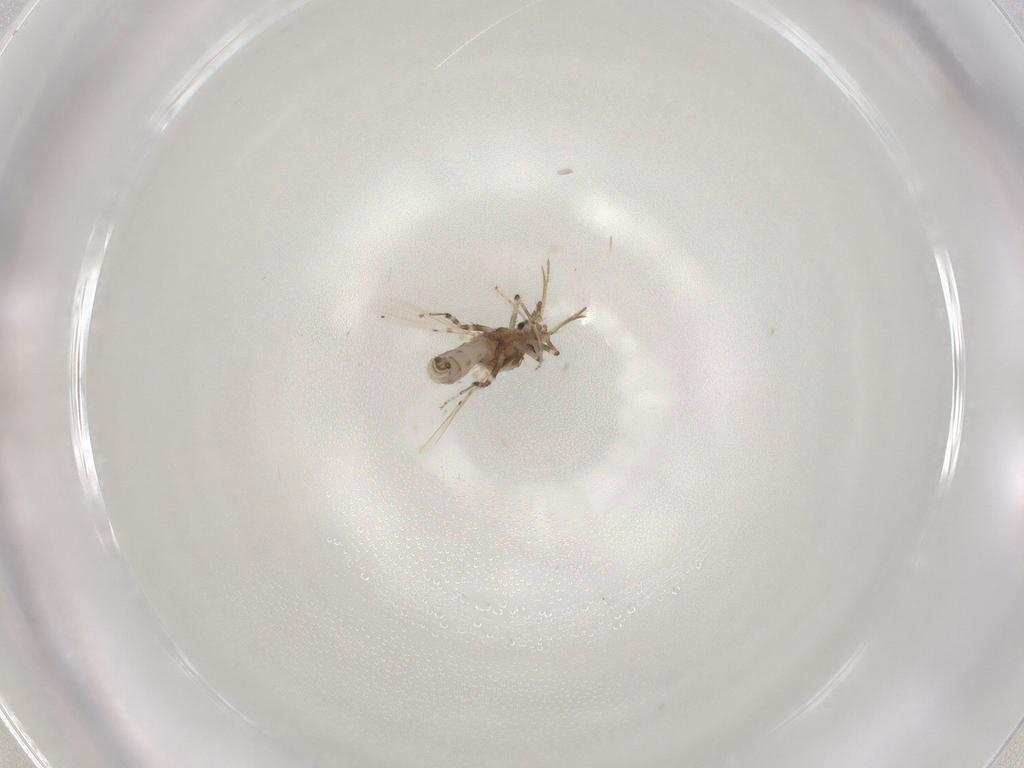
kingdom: Animalia
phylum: Arthropoda
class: Insecta
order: Diptera
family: Ceratopogonidae
